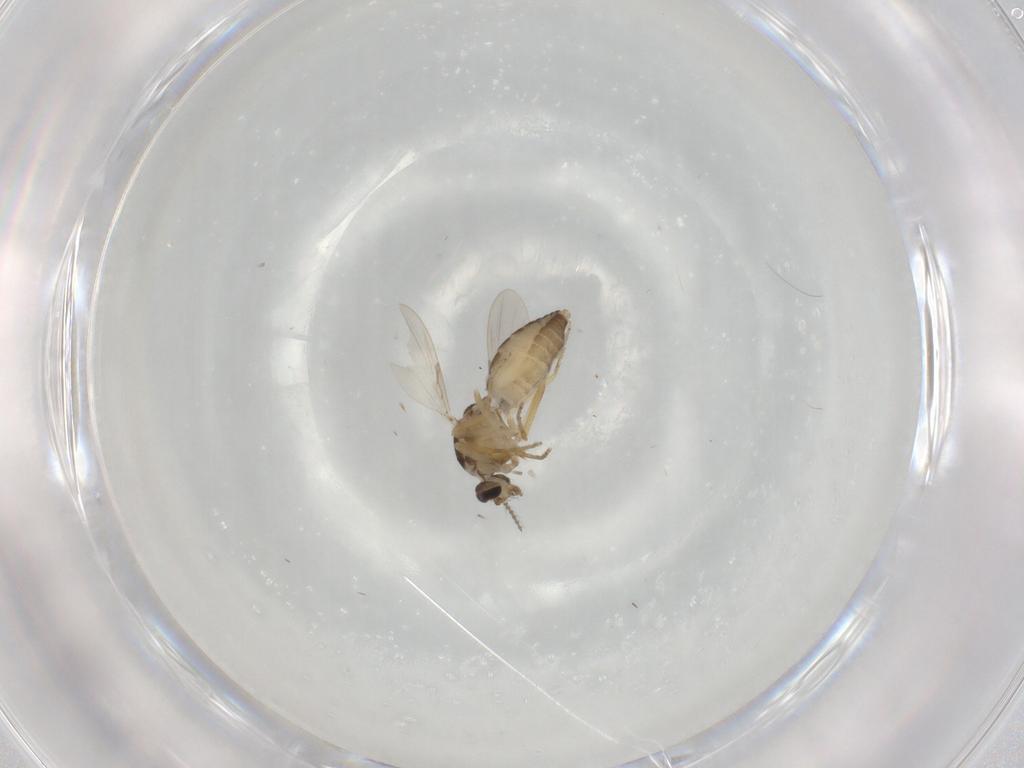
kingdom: Animalia
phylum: Arthropoda
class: Insecta
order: Diptera
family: Ceratopogonidae
